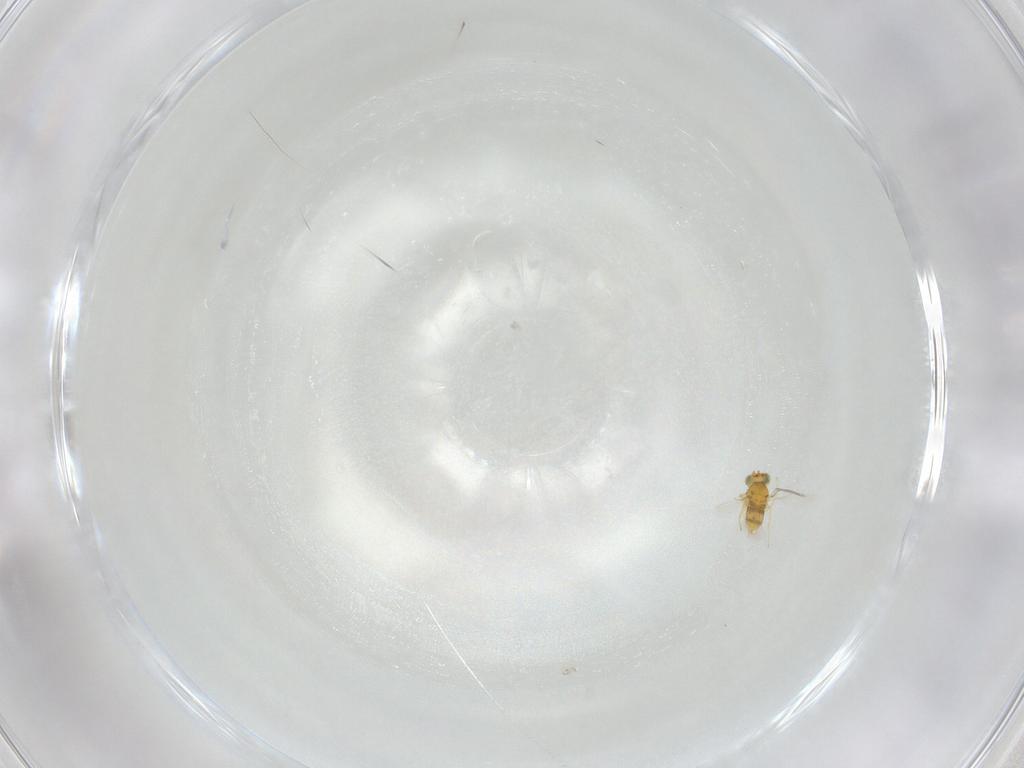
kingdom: Animalia
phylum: Arthropoda
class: Insecta
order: Hymenoptera
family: Aphelinidae
